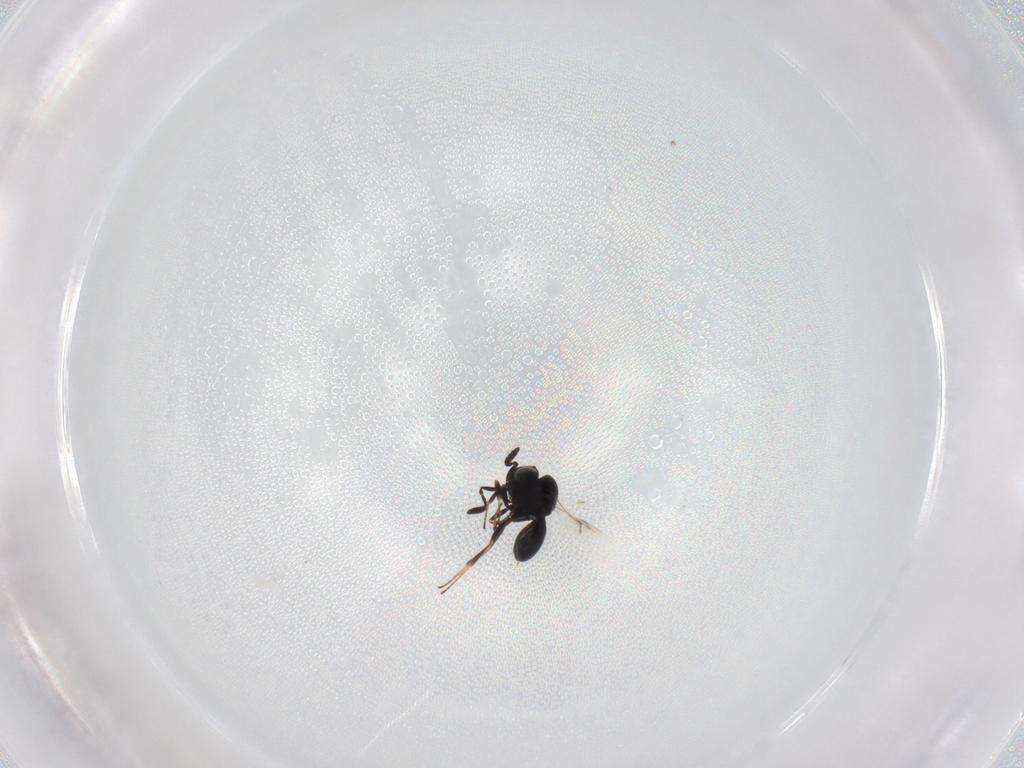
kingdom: Animalia
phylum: Arthropoda
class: Insecta
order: Hymenoptera
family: Scelionidae
